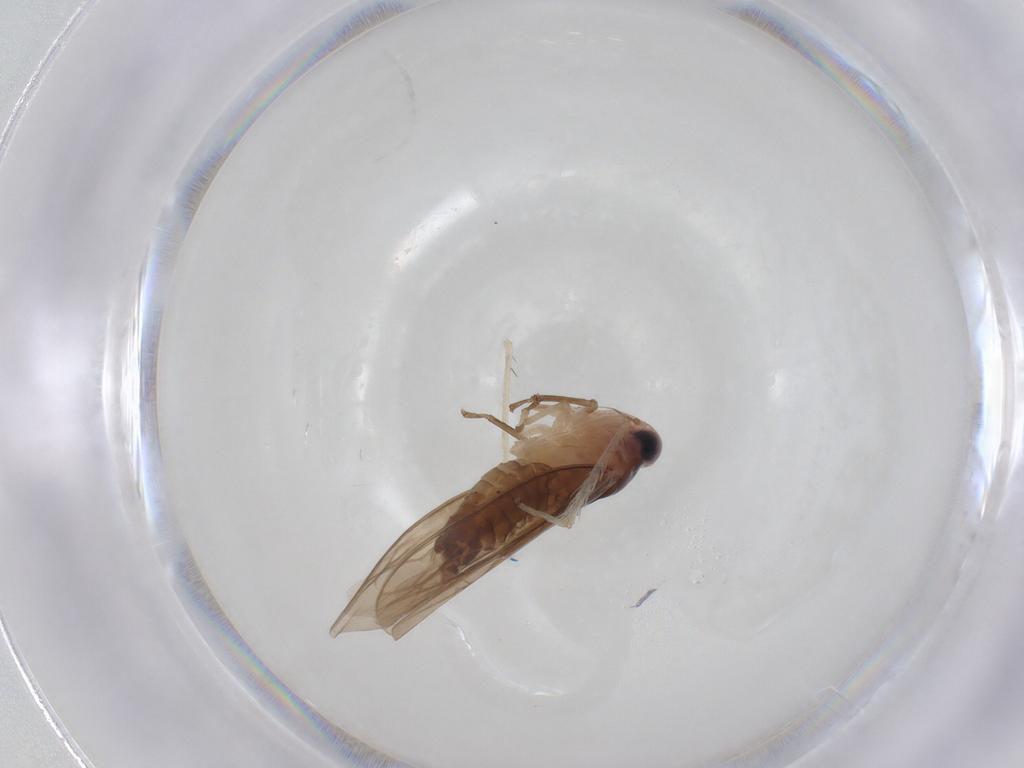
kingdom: Animalia
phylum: Arthropoda
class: Insecta
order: Hemiptera
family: Cicadellidae
